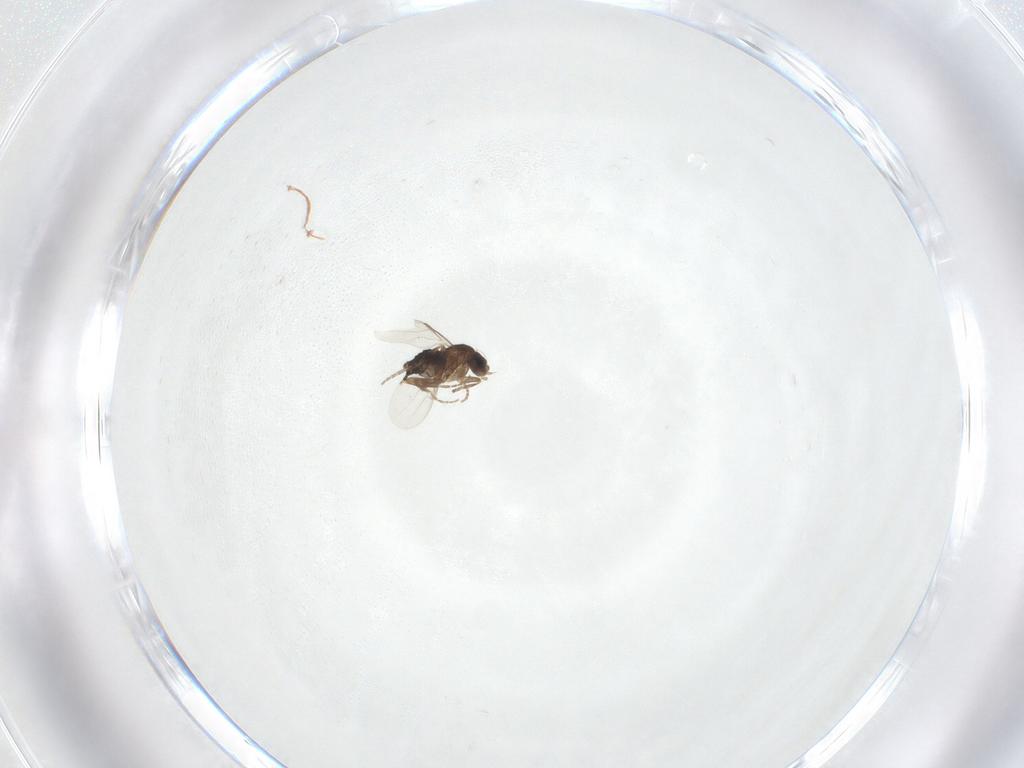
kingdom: Animalia
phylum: Arthropoda
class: Insecta
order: Diptera
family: Phoridae
